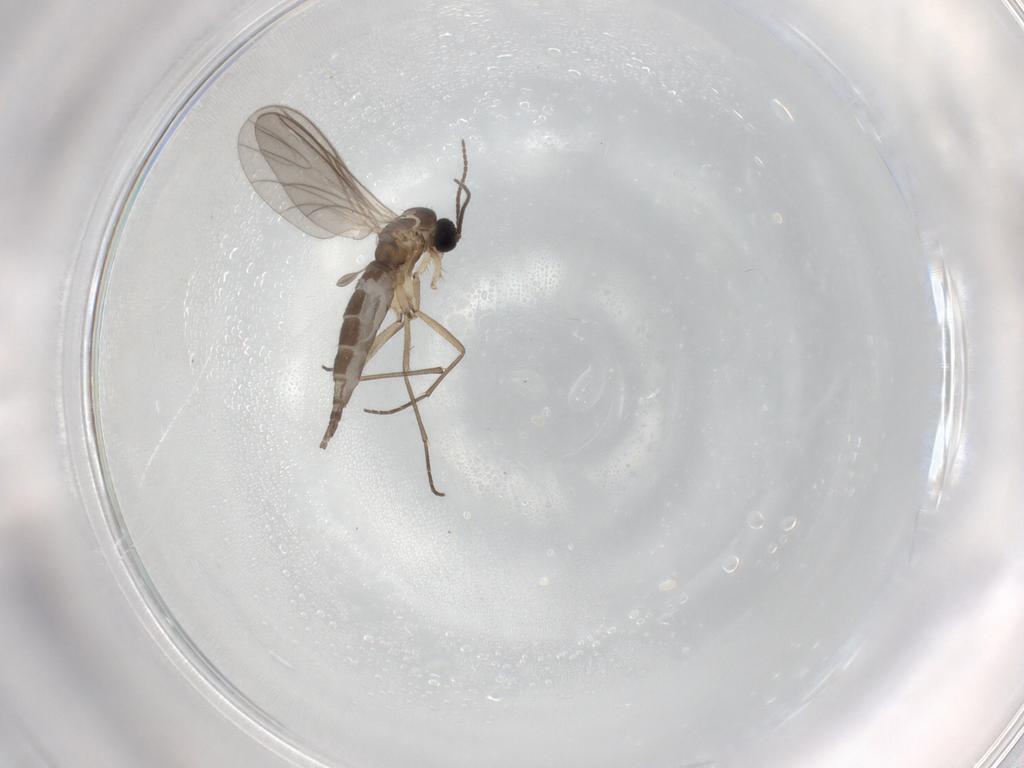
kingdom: Animalia
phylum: Arthropoda
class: Insecta
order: Diptera
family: Sciaridae
